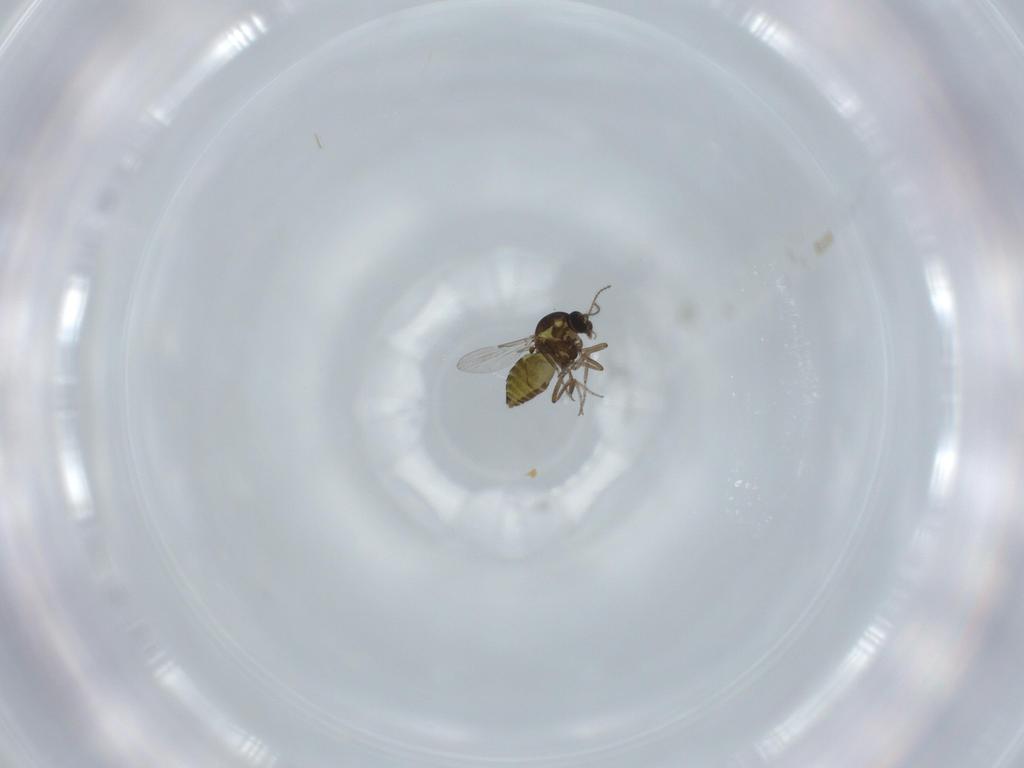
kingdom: Animalia
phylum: Arthropoda
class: Insecta
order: Diptera
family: Ceratopogonidae
